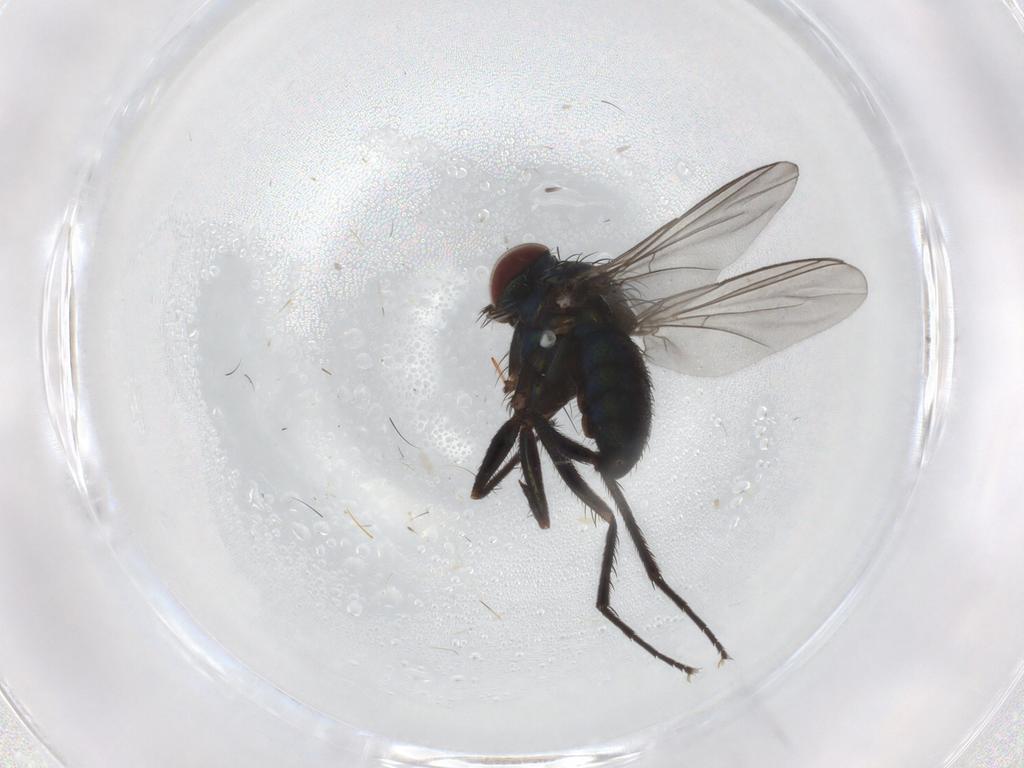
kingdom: Animalia
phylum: Arthropoda
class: Insecta
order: Diptera
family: Dolichopodidae
